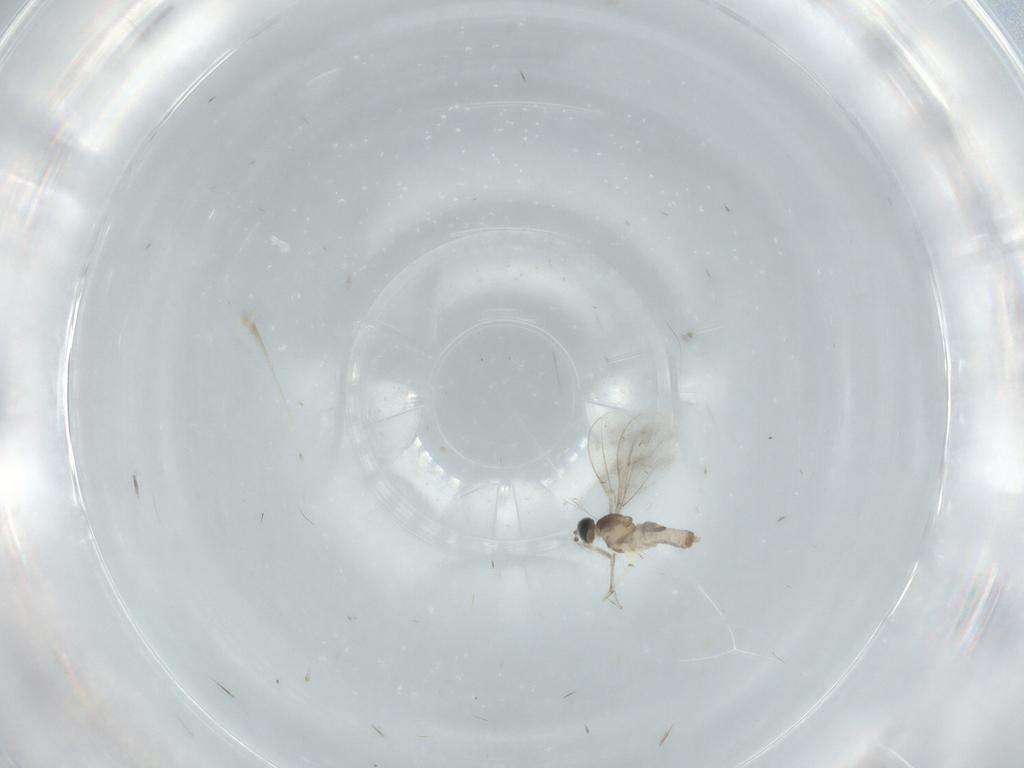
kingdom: Animalia
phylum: Arthropoda
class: Insecta
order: Diptera
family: Cecidomyiidae
